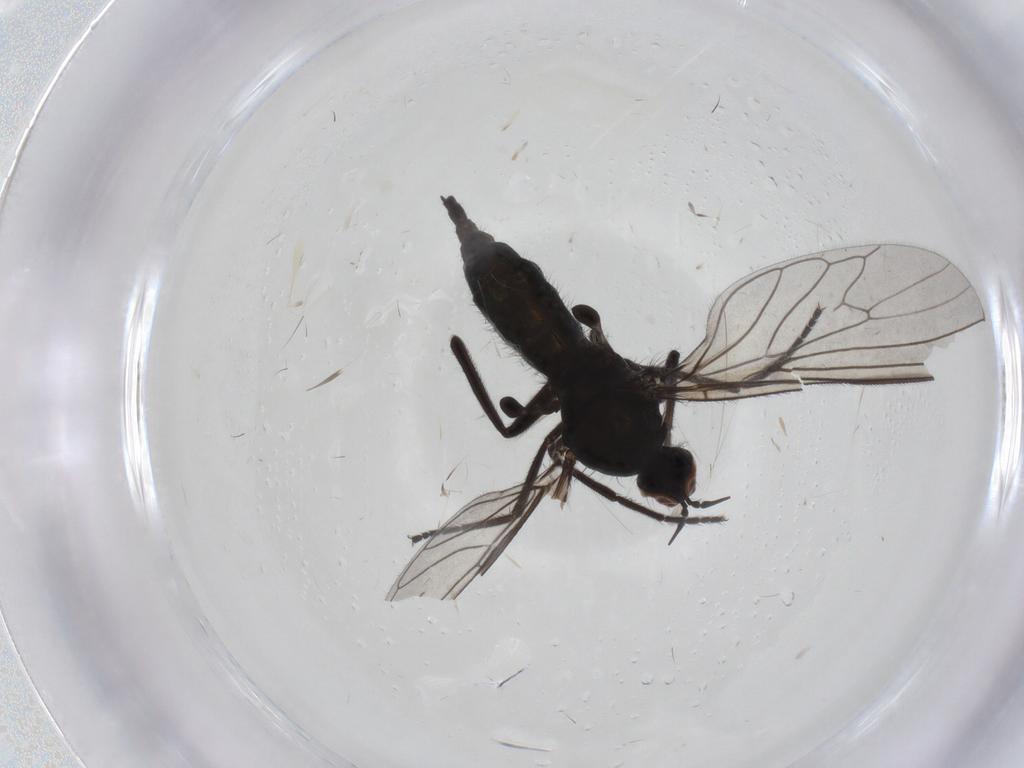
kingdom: Animalia
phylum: Arthropoda
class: Insecta
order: Diptera
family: Empididae
